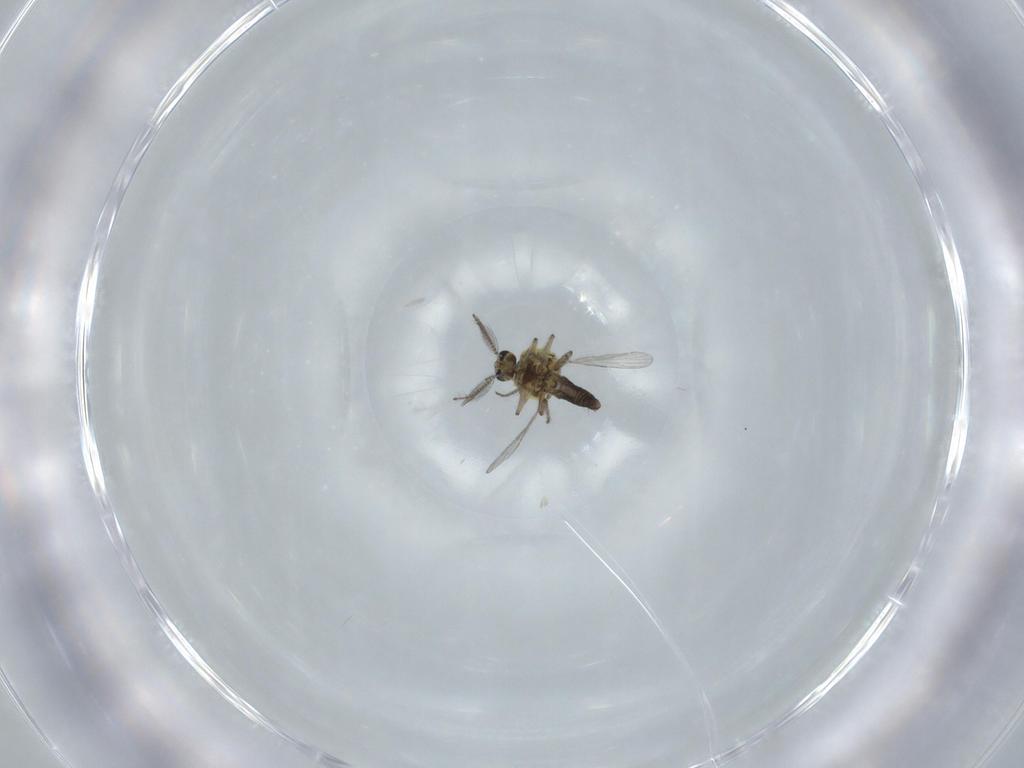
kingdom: Animalia
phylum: Arthropoda
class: Insecta
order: Diptera
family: Ceratopogonidae
